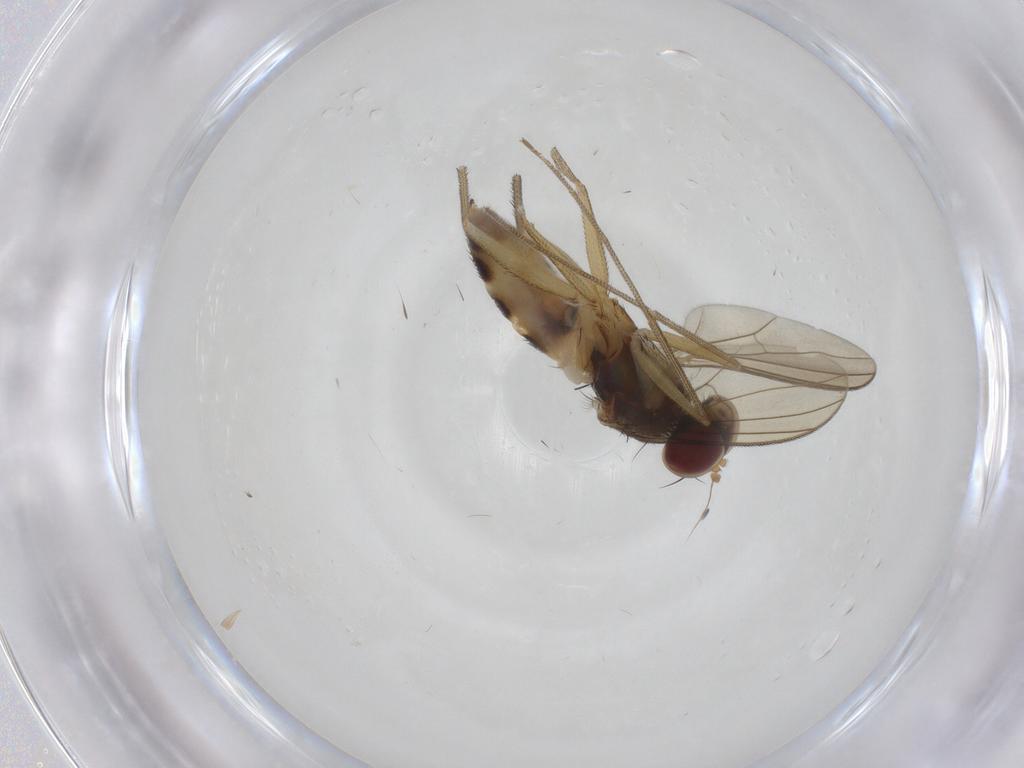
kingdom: Animalia
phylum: Arthropoda
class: Insecta
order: Diptera
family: Dolichopodidae
